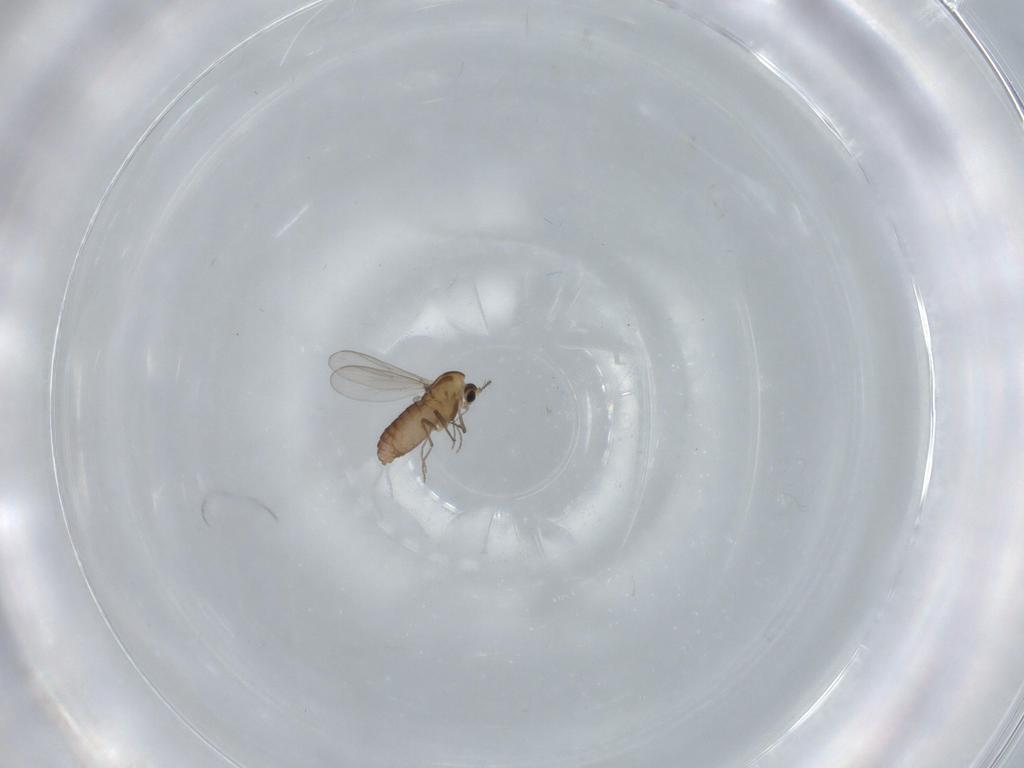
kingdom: Animalia
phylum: Arthropoda
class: Insecta
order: Diptera
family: Chironomidae
